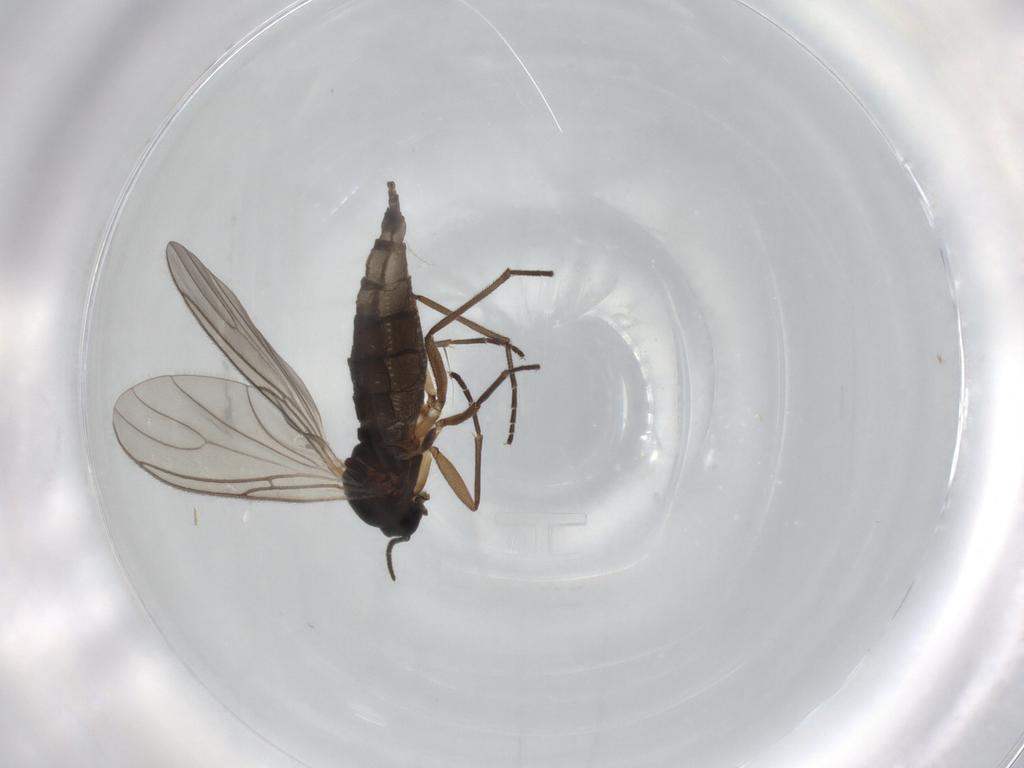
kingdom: Animalia
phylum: Arthropoda
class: Insecta
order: Diptera
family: Sciaridae
